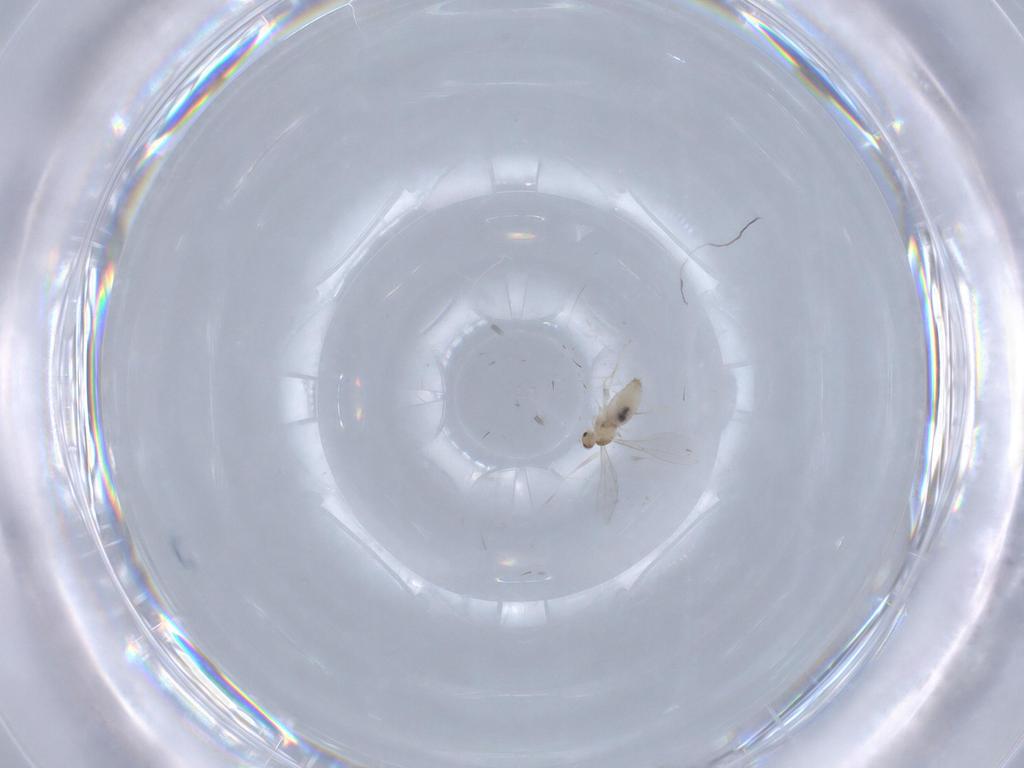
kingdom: Animalia
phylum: Arthropoda
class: Insecta
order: Diptera
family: Cecidomyiidae
